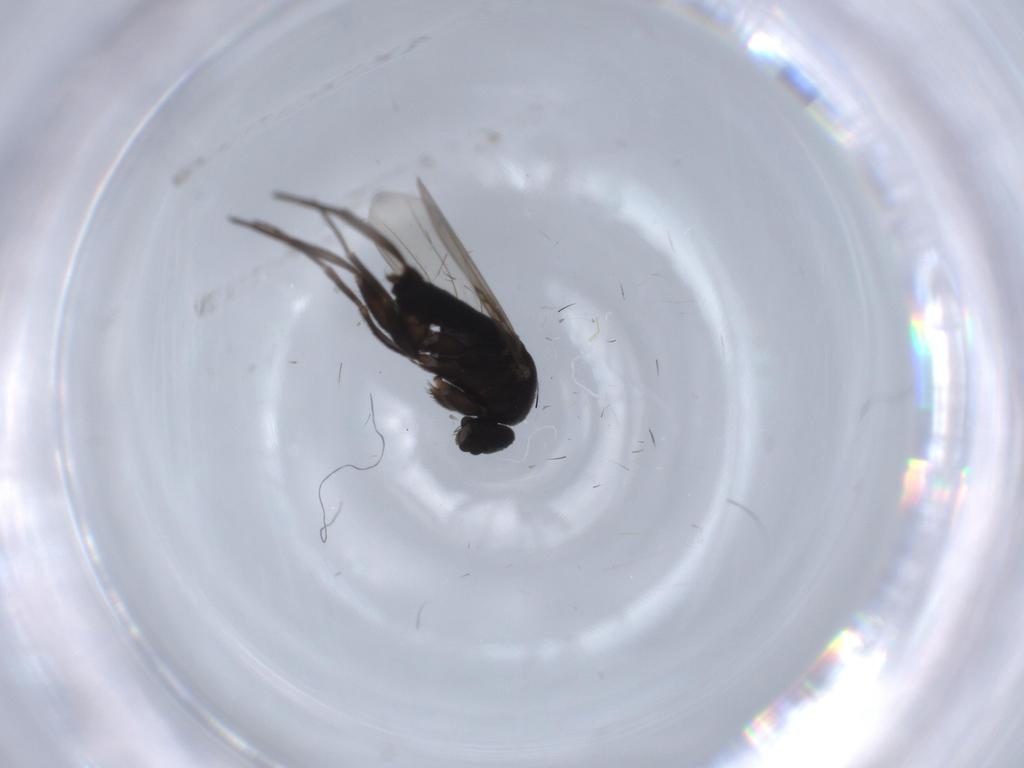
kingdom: Animalia
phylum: Arthropoda
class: Insecta
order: Diptera
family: Phoridae
